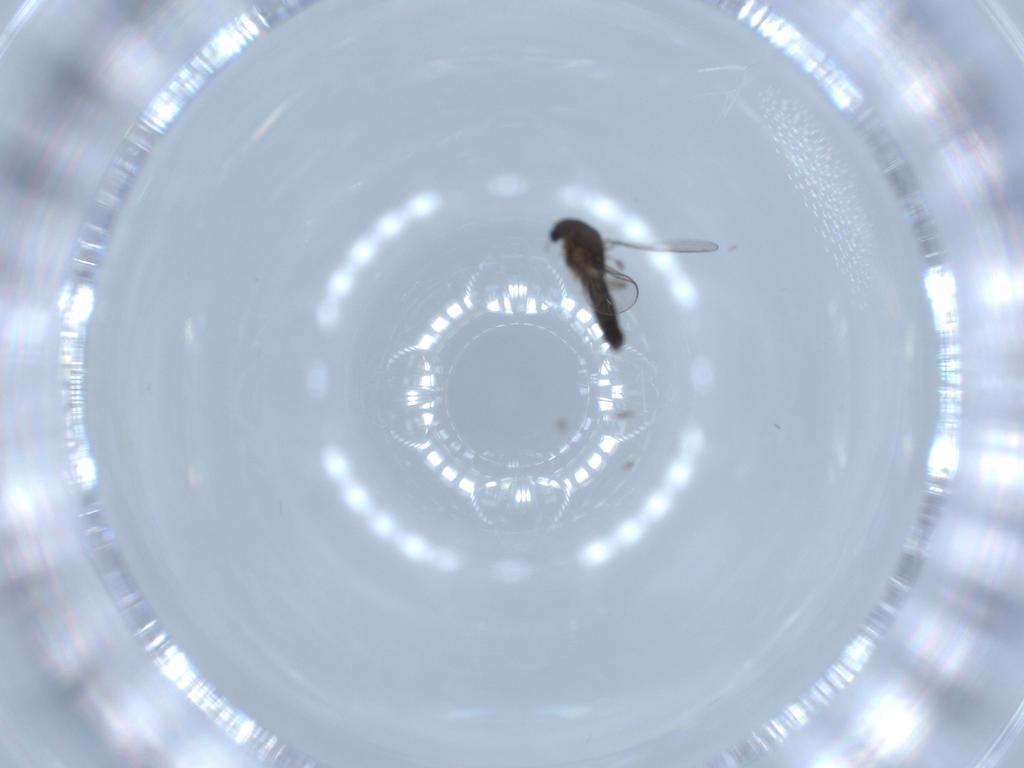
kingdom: Animalia
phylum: Arthropoda
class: Insecta
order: Diptera
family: Chironomidae
